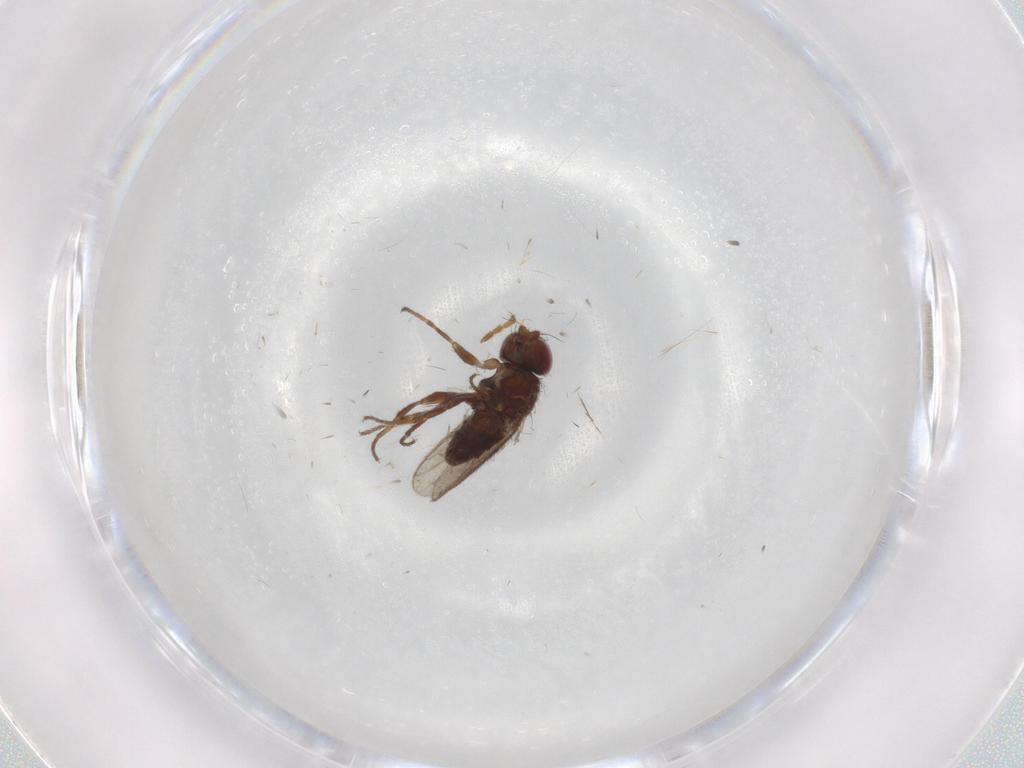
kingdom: Animalia
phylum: Arthropoda
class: Insecta
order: Diptera
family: Chloropidae
